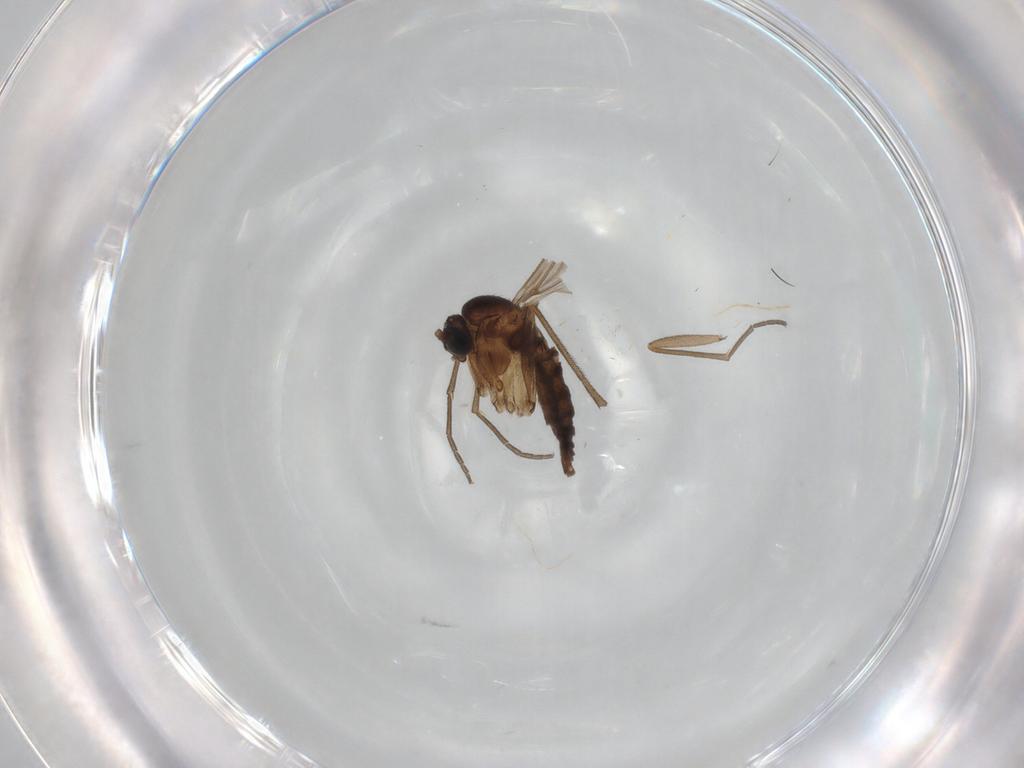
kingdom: Animalia
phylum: Arthropoda
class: Insecta
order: Diptera
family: Sciaridae
